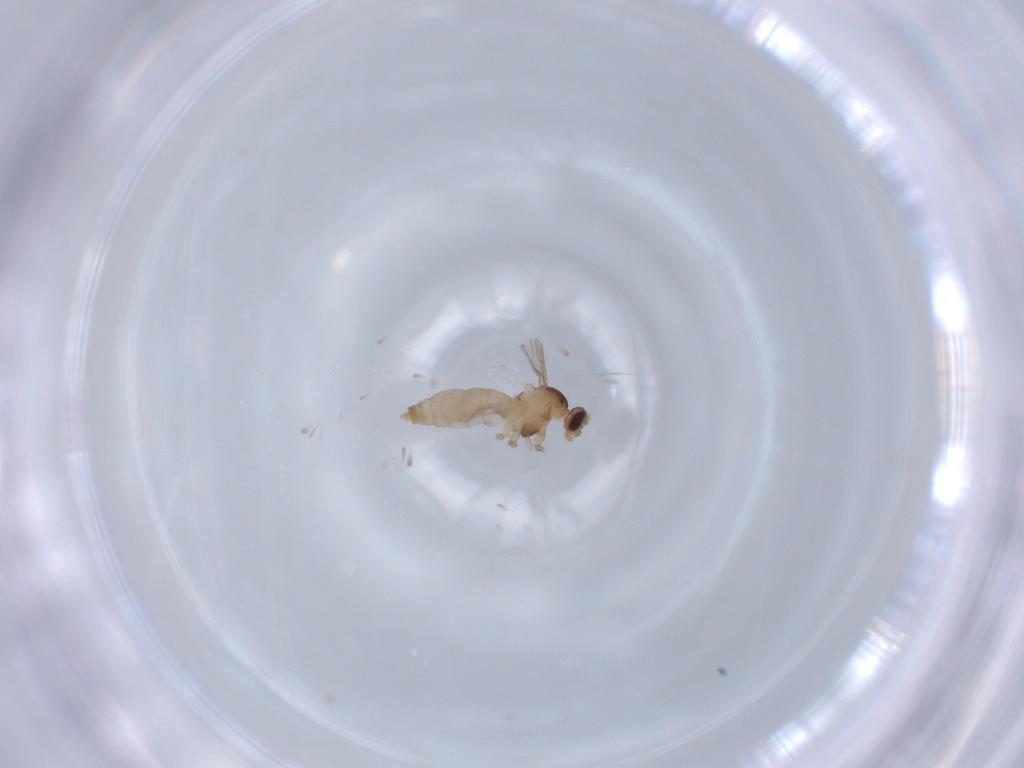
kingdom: Animalia
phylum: Arthropoda
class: Insecta
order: Diptera
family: Cecidomyiidae
